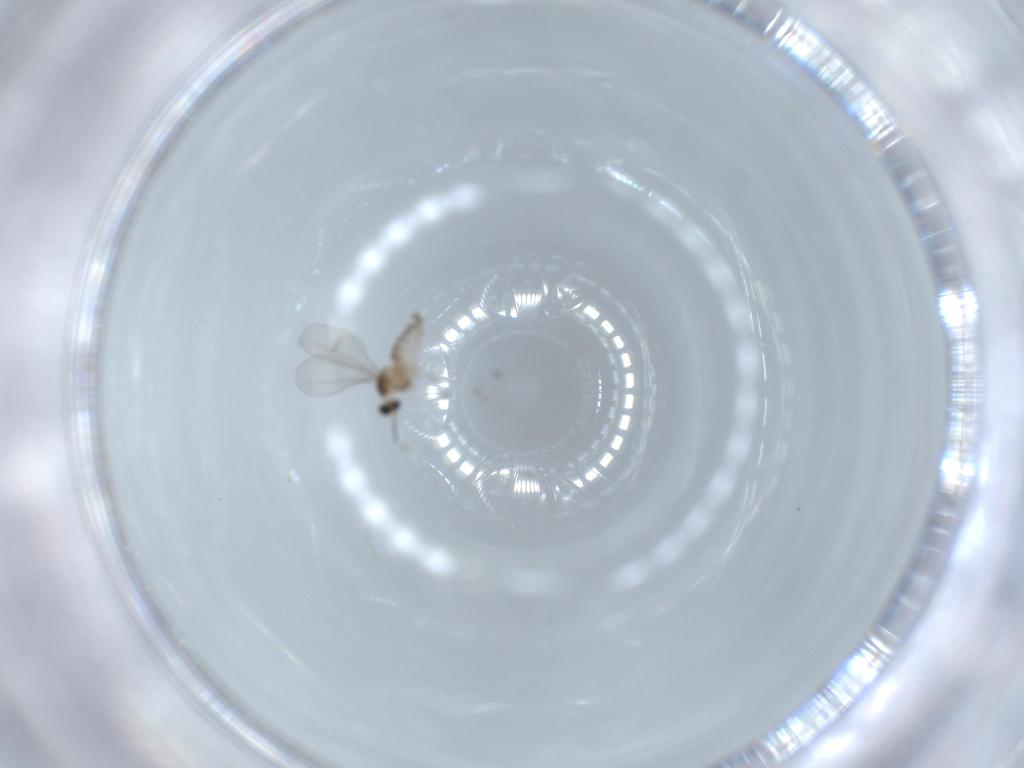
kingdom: Animalia
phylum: Arthropoda
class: Insecta
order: Diptera
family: Cecidomyiidae
